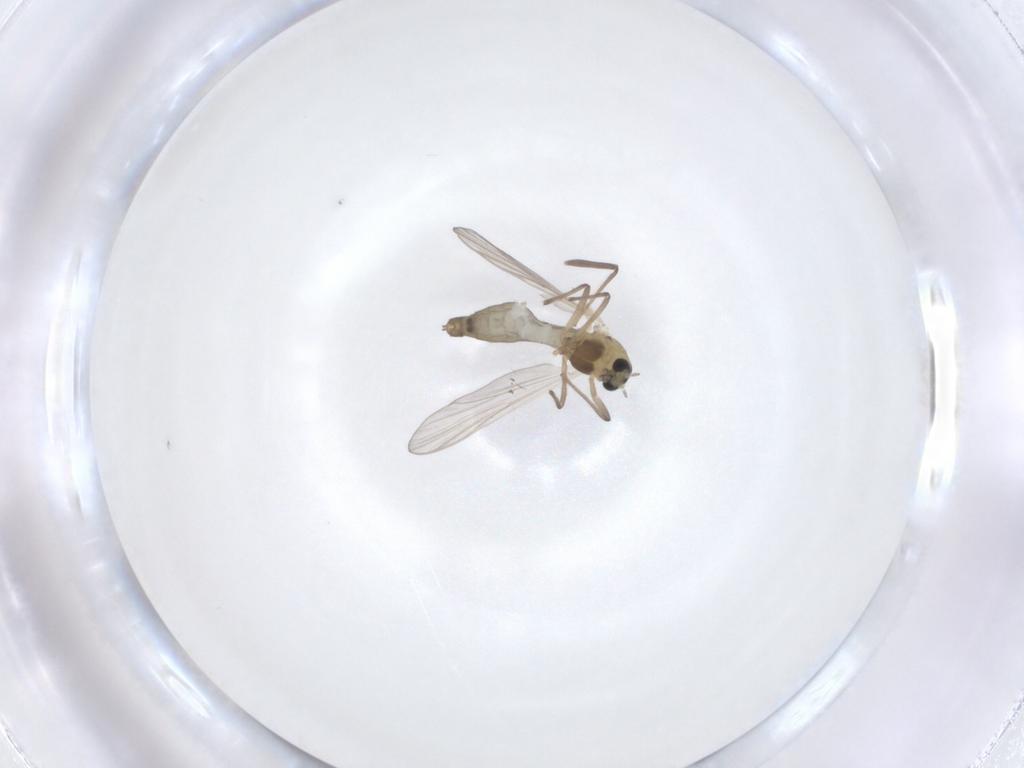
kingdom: Animalia
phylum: Arthropoda
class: Insecta
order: Diptera
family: Chironomidae
